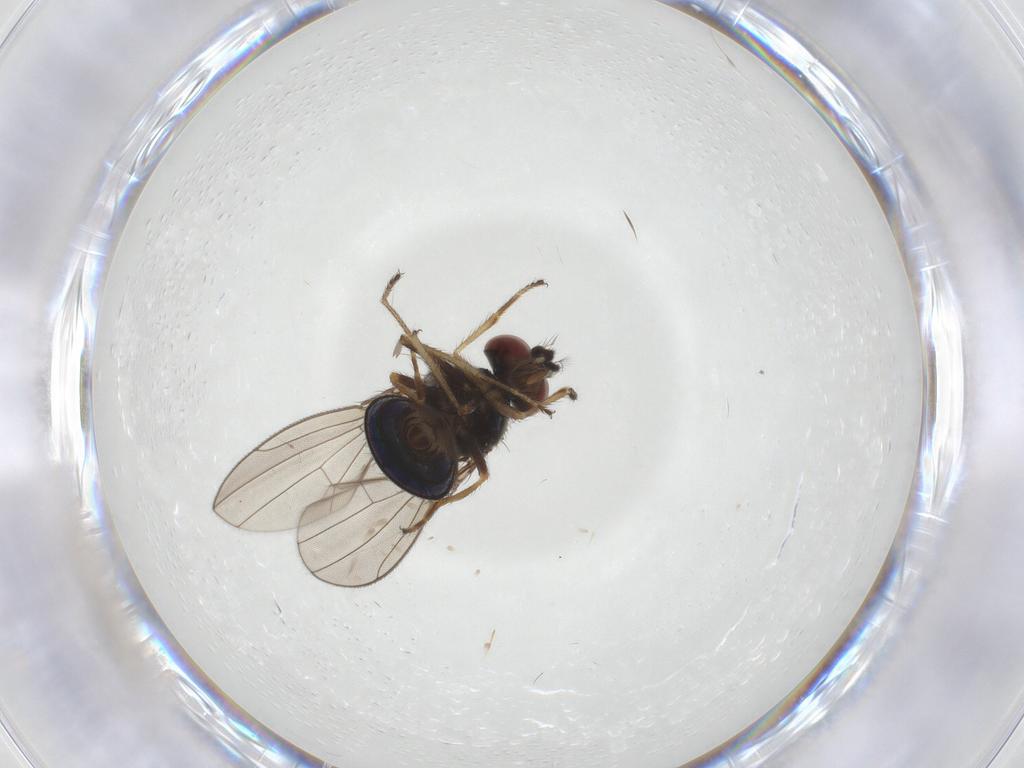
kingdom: Animalia
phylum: Arthropoda
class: Insecta
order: Diptera
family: Ephydridae
